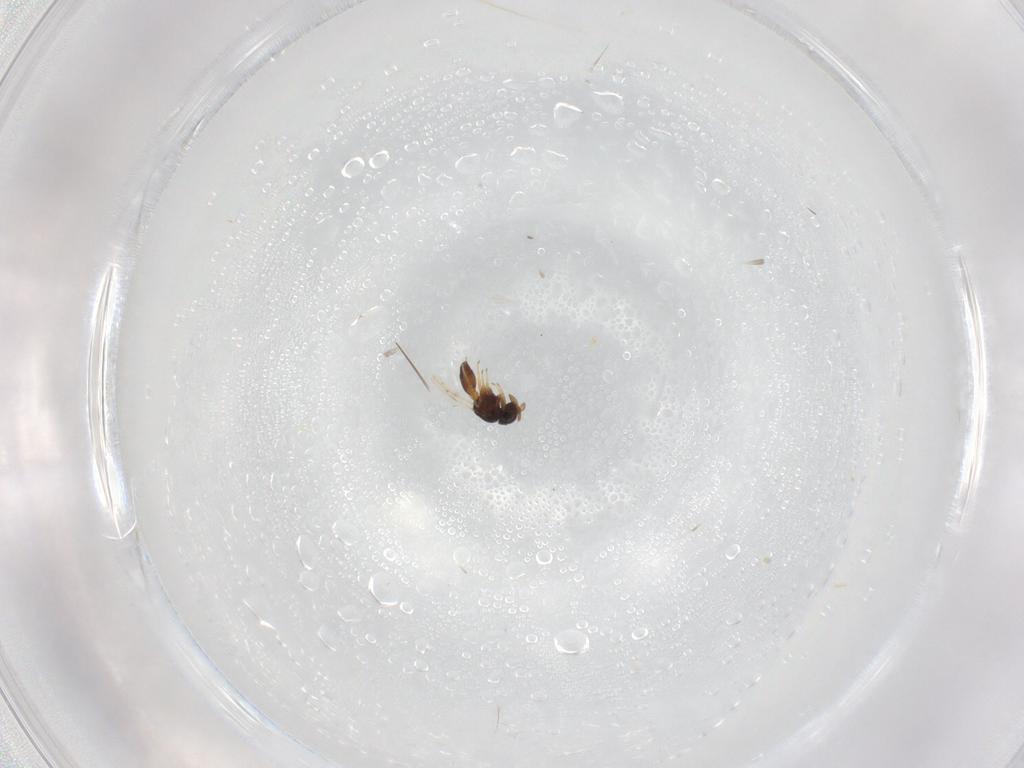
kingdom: Animalia
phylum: Arthropoda
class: Insecta
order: Hymenoptera
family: Scelionidae
